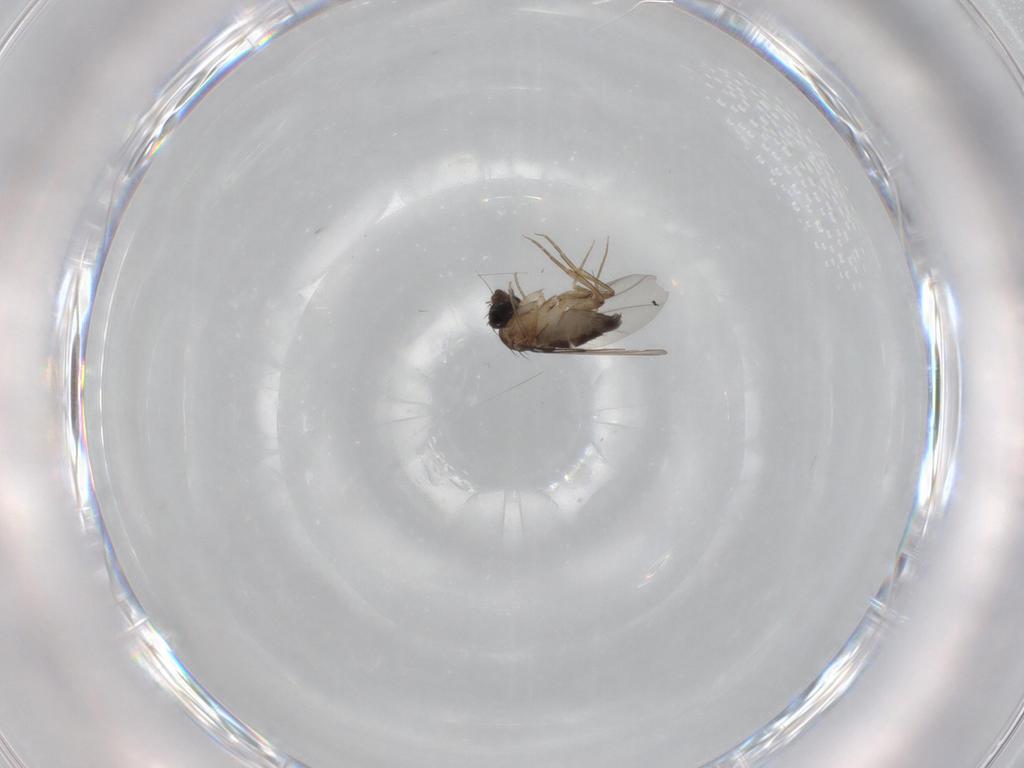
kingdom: Animalia
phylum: Arthropoda
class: Insecta
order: Diptera
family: Phoridae
